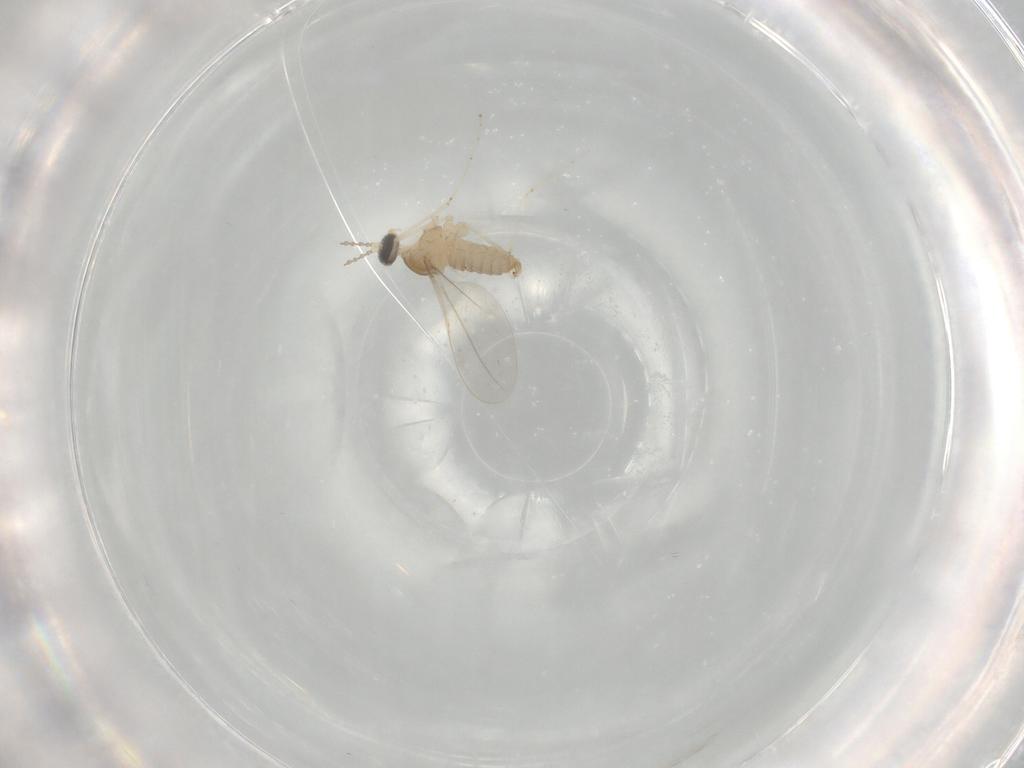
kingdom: Animalia
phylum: Arthropoda
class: Insecta
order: Diptera
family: Cecidomyiidae
